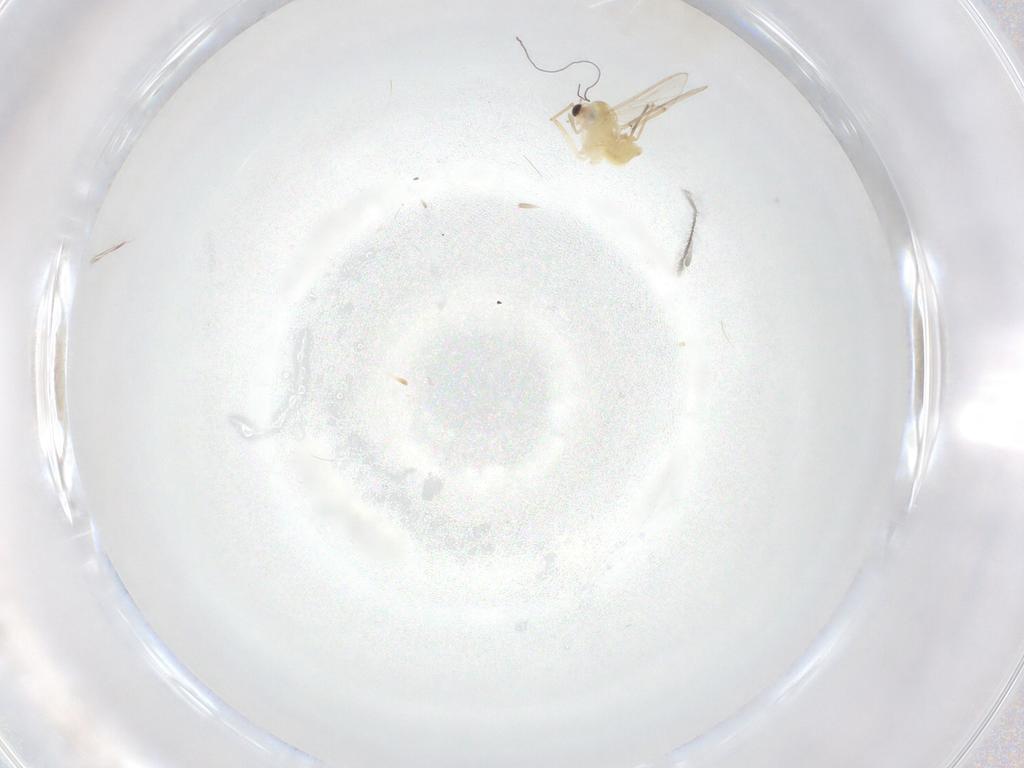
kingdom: Animalia
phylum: Arthropoda
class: Insecta
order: Diptera
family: Chironomidae
